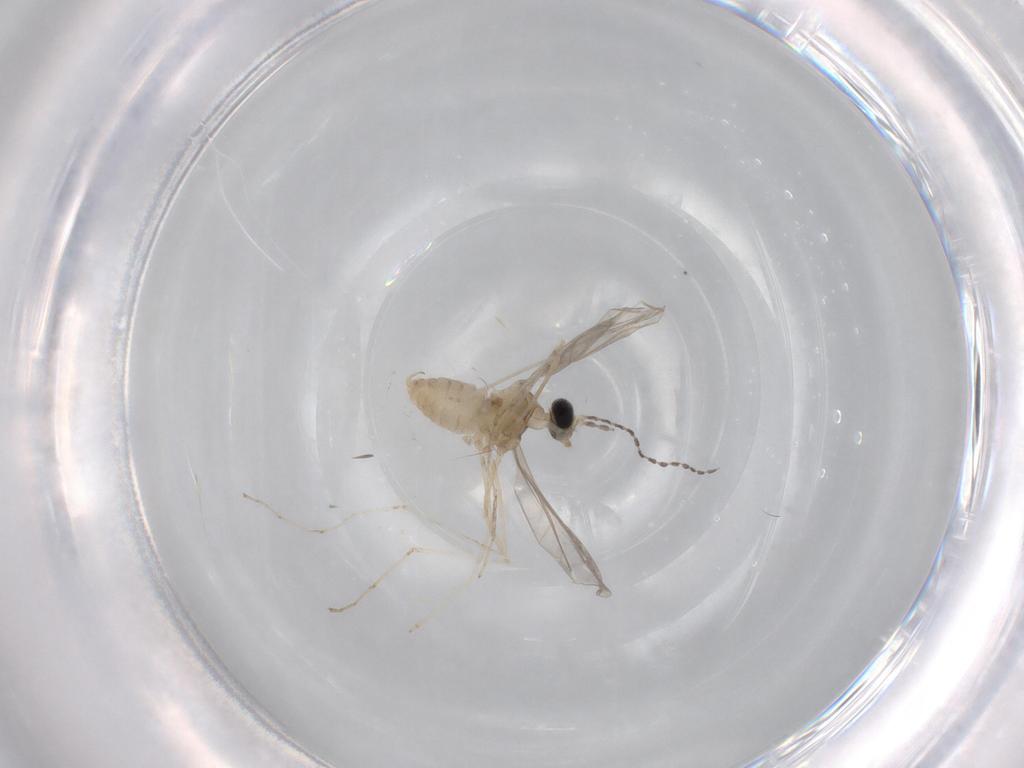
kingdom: Animalia
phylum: Arthropoda
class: Insecta
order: Diptera
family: Cecidomyiidae
